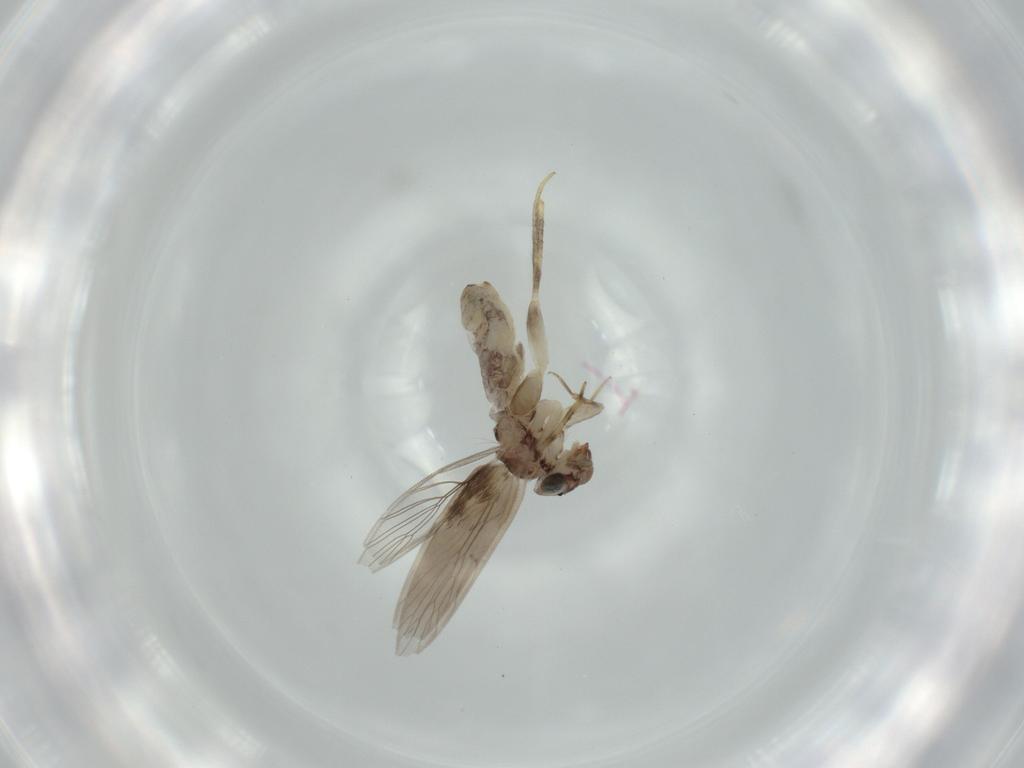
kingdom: Animalia
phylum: Arthropoda
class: Insecta
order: Psocodea
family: Lepidopsocidae
